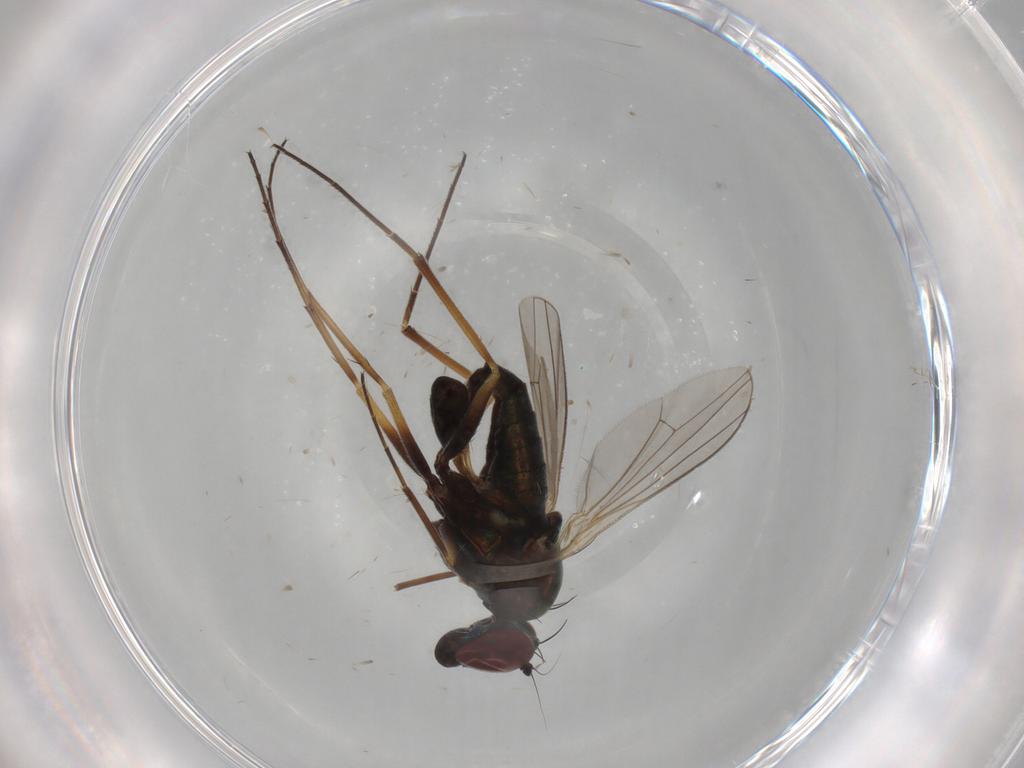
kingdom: Animalia
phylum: Arthropoda
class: Insecta
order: Diptera
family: Dolichopodidae
